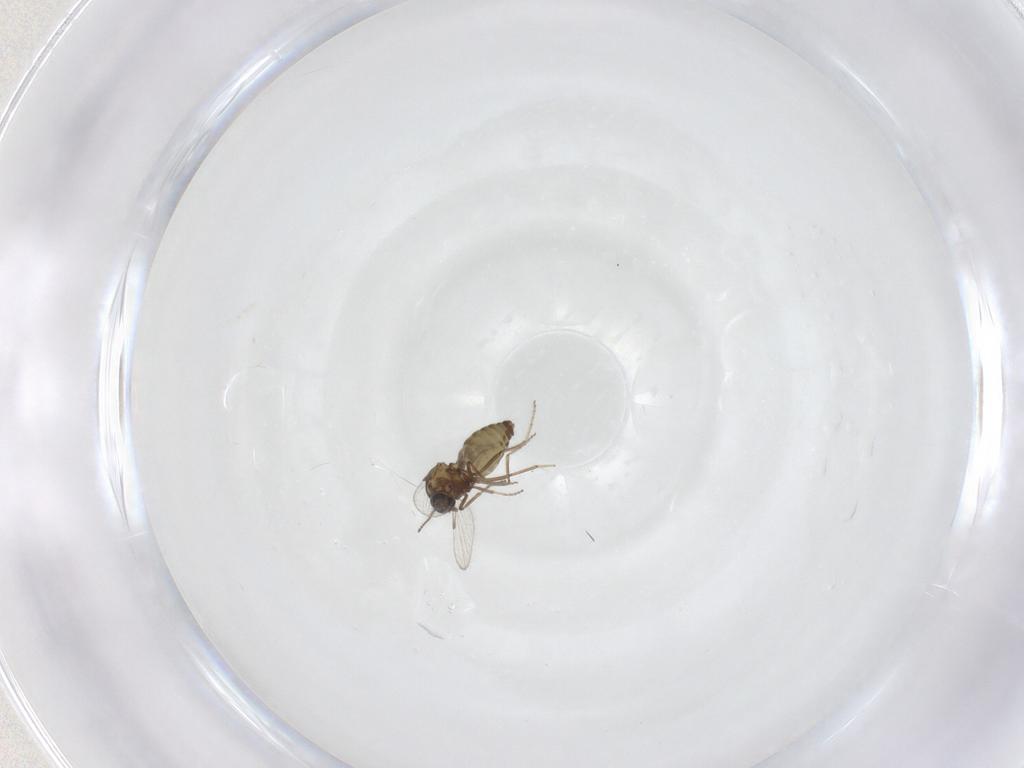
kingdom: Animalia
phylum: Arthropoda
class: Insecta
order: Diptera
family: Ceratopogonidae
